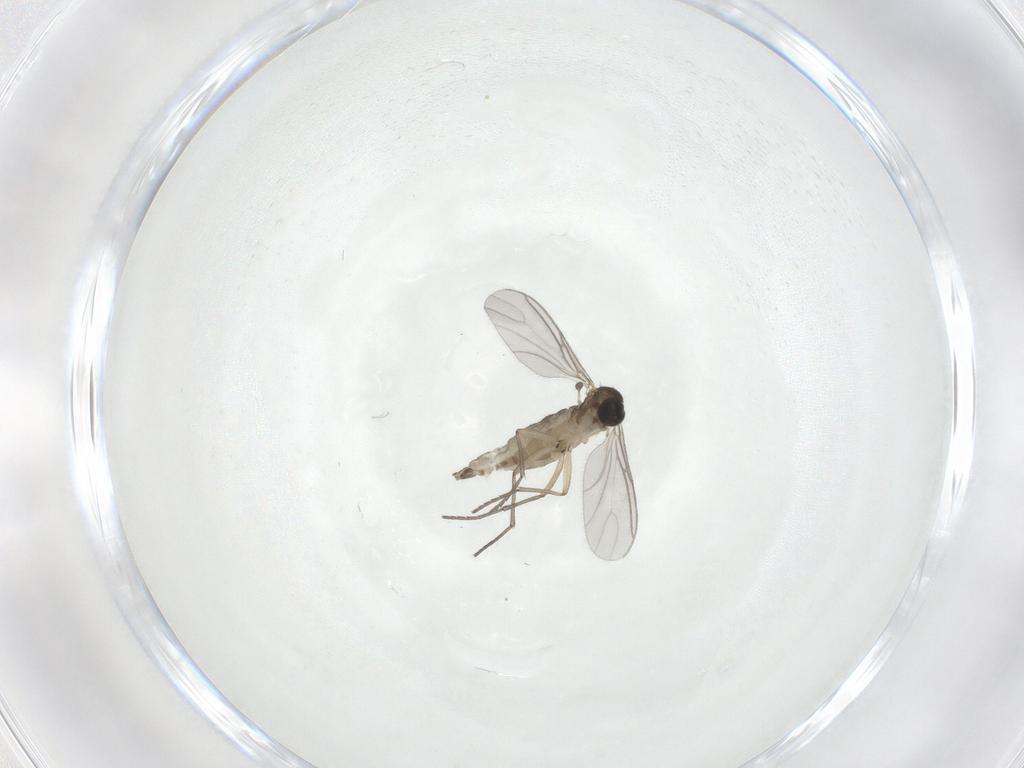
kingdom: Animalia
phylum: Arthropoda
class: Insecta
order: Diptera
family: Sciaridae
